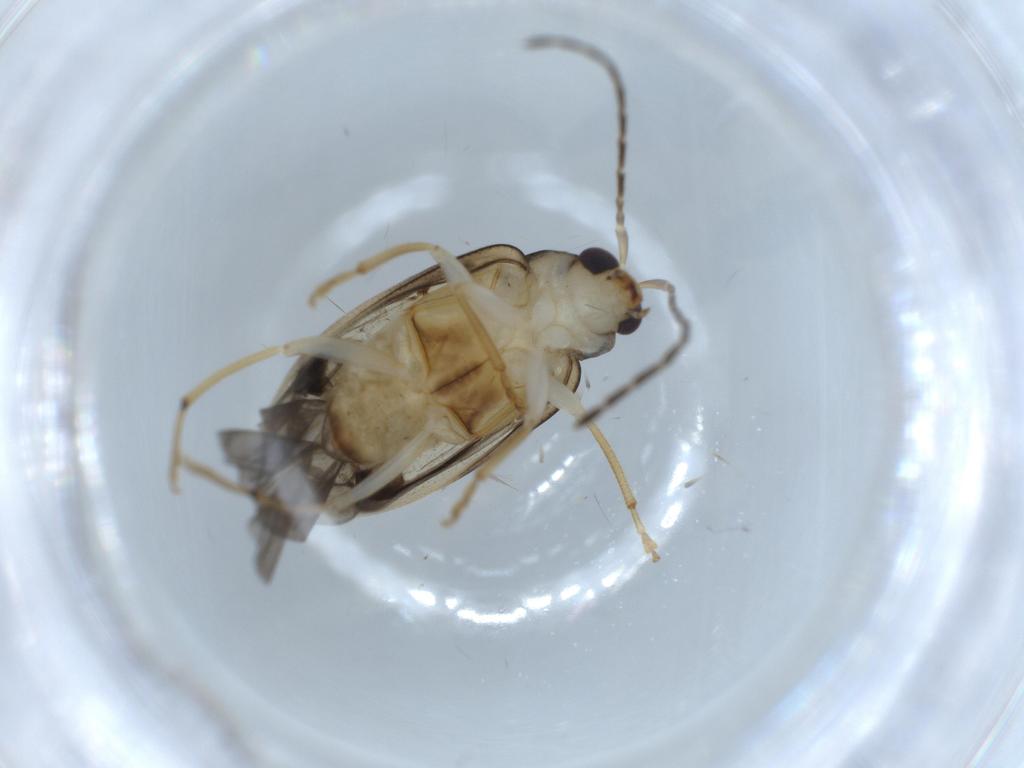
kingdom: Animalia
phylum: Arthropoda
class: Insecta
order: Coleoptera
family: Chrysomelidae
